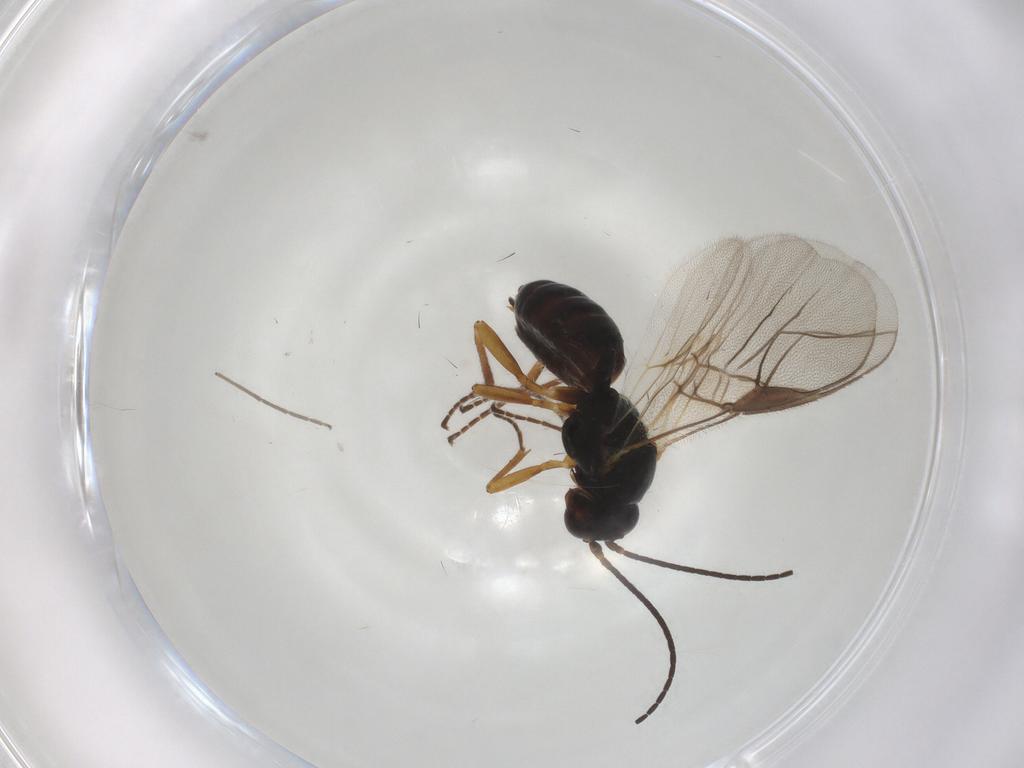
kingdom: Animalia
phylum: Arthropoda
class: Insecta
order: Hymenoptera
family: Braconidae
